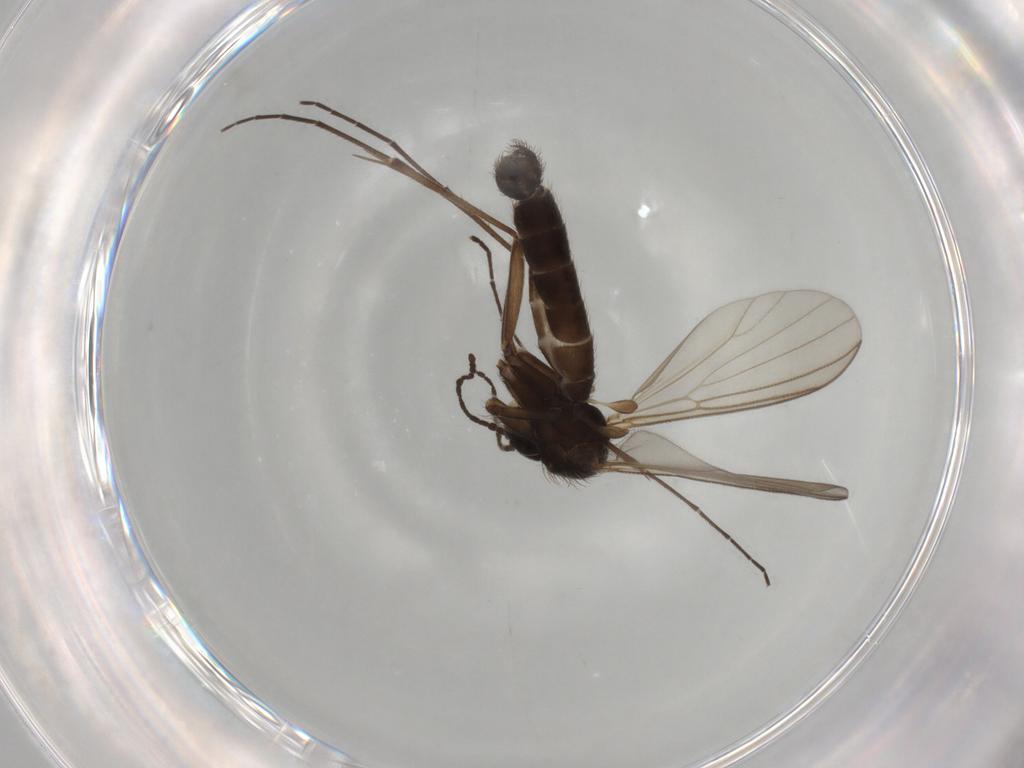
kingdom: Animalia
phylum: Arthropoda
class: Insecta
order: Diptera
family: Mycetophilidae
